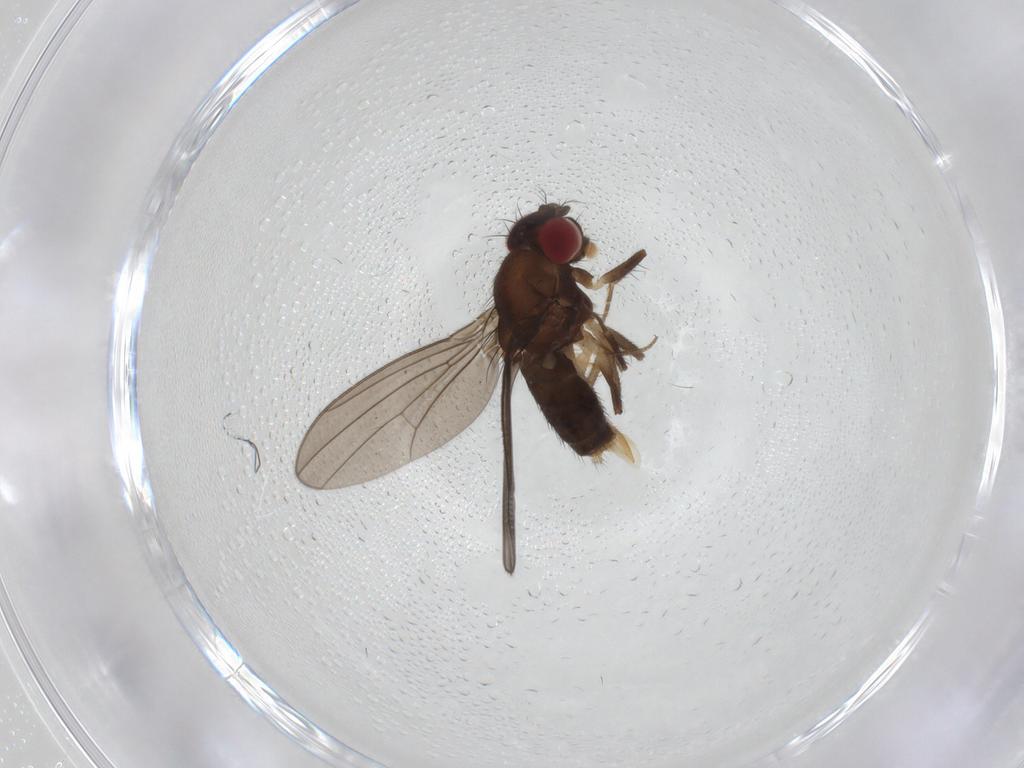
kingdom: Animalia
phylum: Arthropoda
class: Insecta
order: Diptera
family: Drosophilidae
